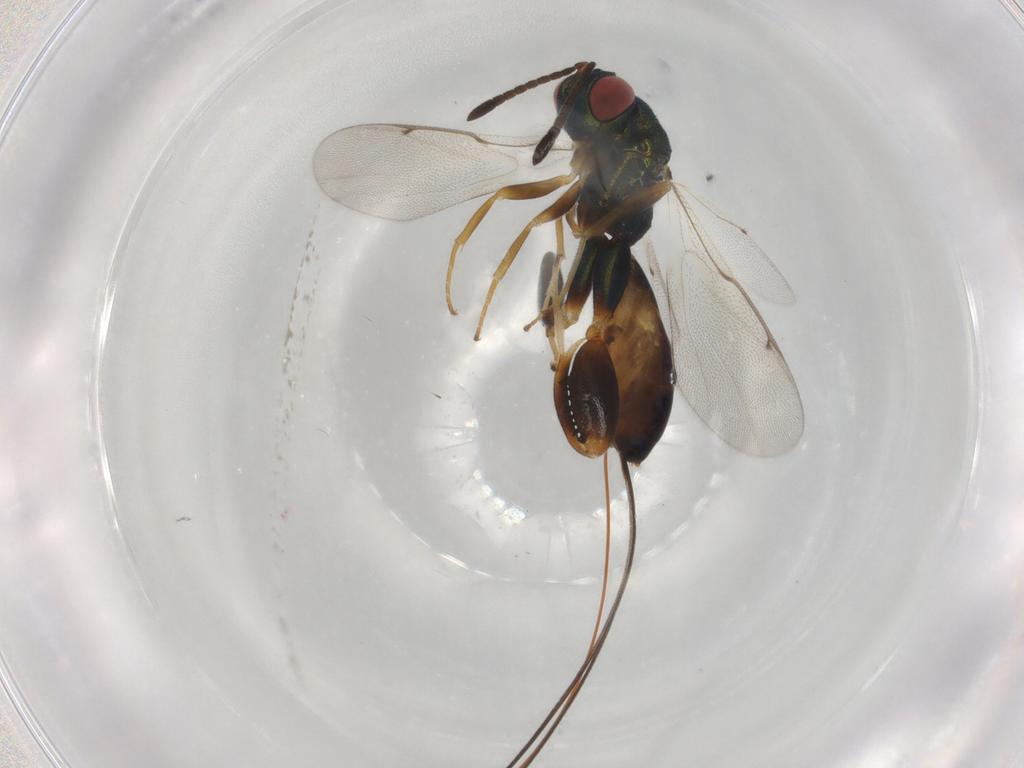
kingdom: Animalia
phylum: Arthropoda
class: Insecta
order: Hymenoptera
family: Torymidae
